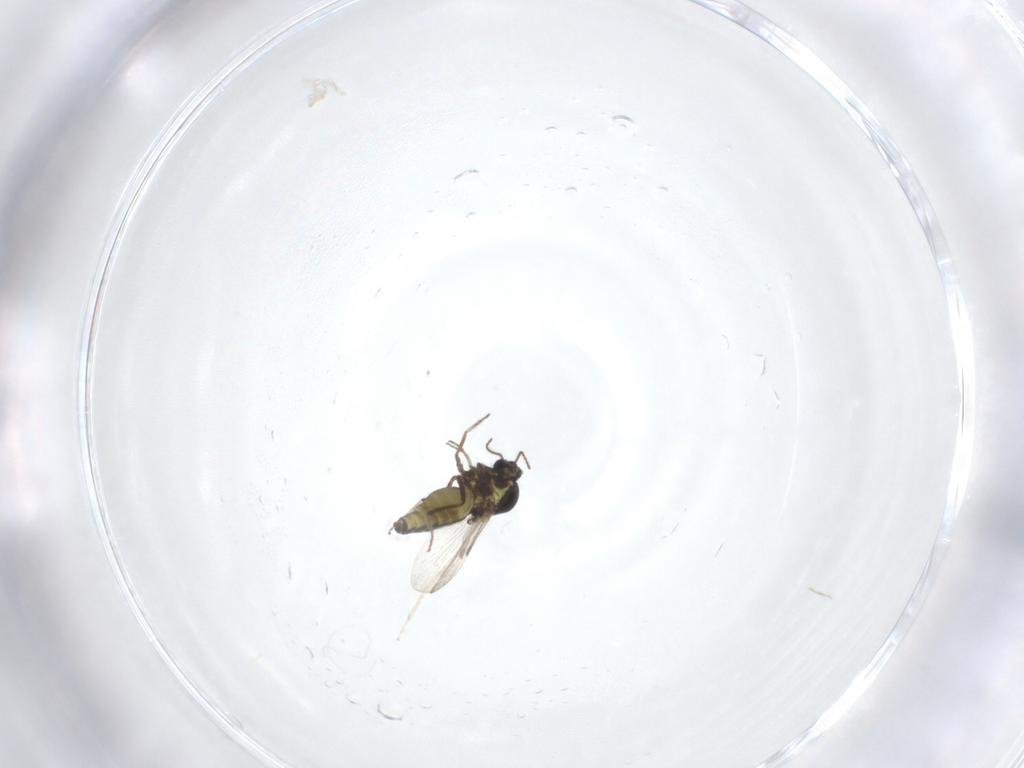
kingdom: Animalia
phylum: Arthropoda
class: Insecta
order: Diptera
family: Ceratopogonidae
